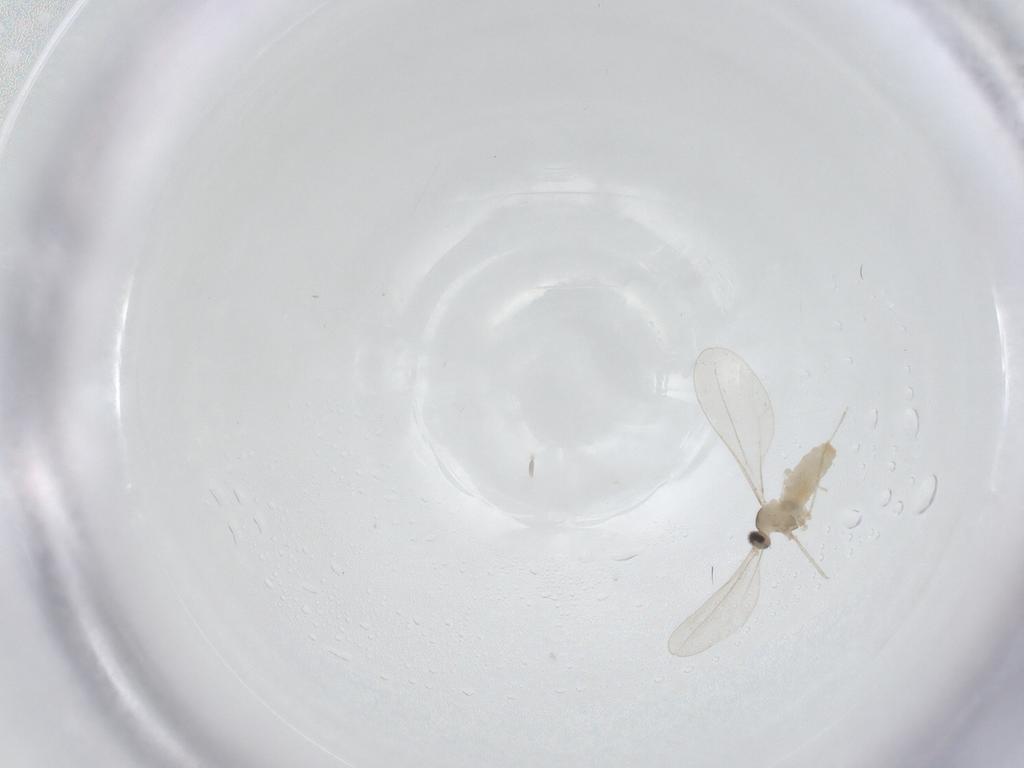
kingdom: Animalia
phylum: Arthropoda
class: Insecta
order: Diptera
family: Cecidomyiidae
